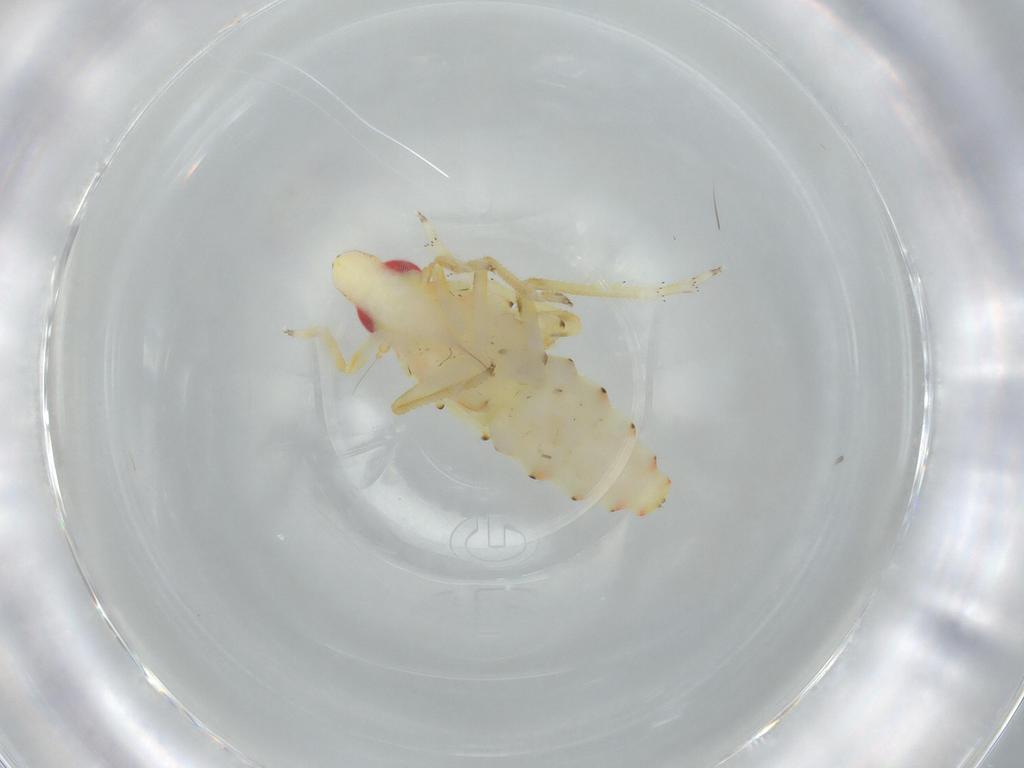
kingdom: Animalia
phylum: Arthropoda
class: Insecta
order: Hemiptera
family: Tropiduchidae
